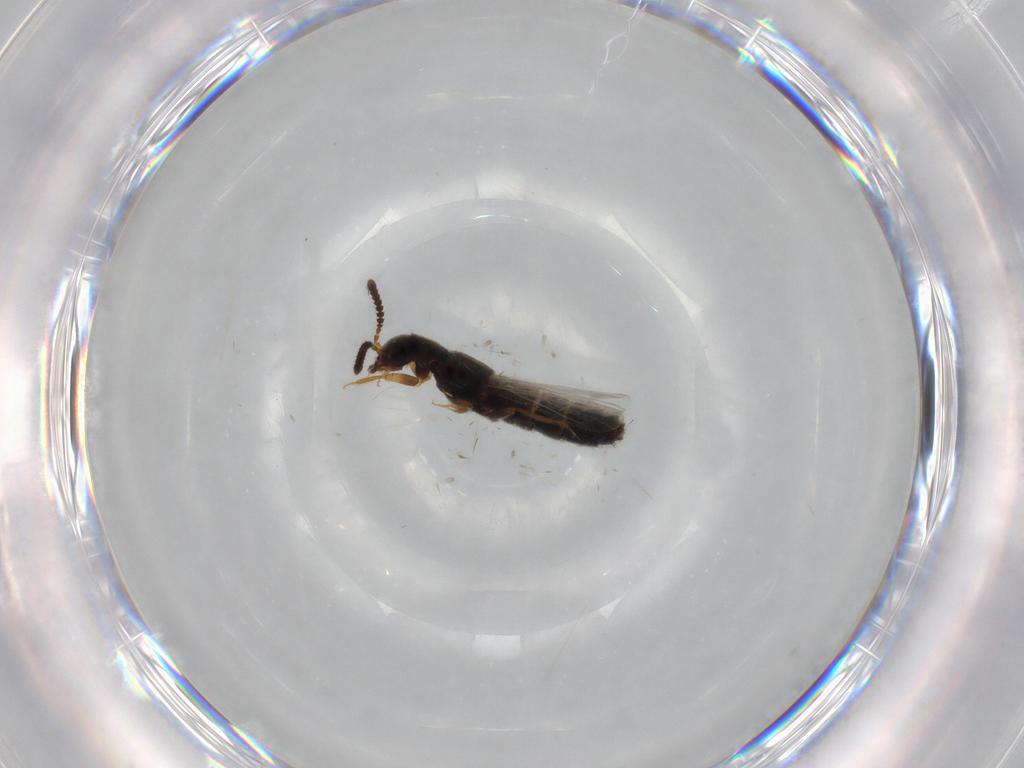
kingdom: Animalia
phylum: Arthropoda
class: Insecta
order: Coleoptera
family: Staphylinidae
